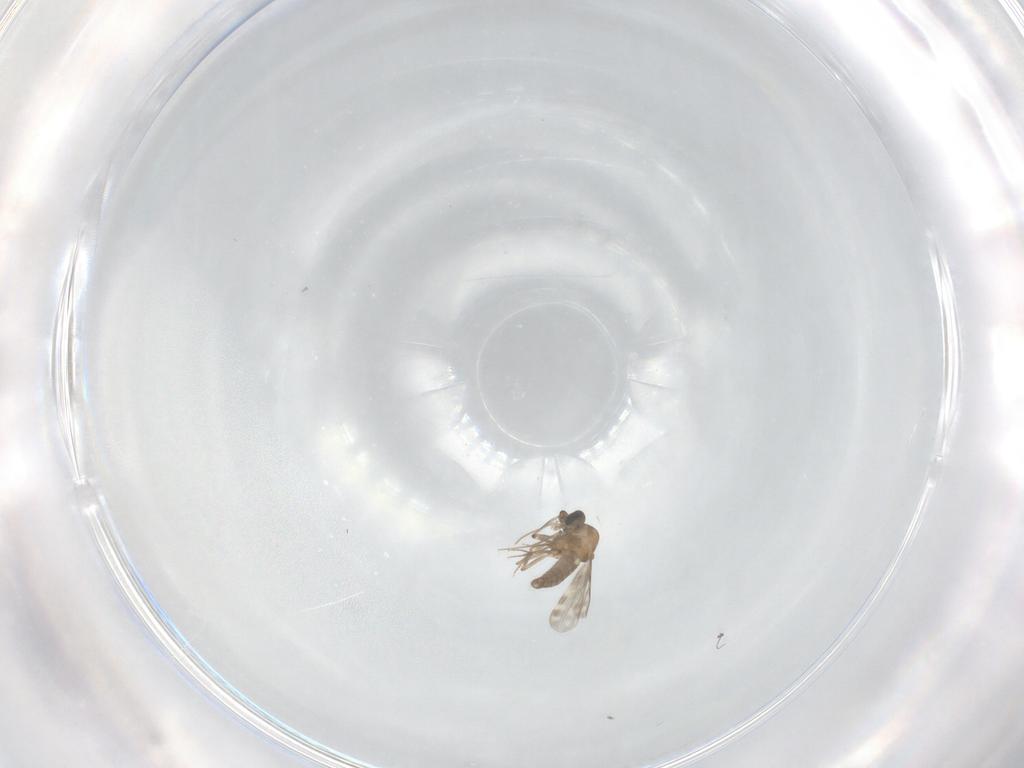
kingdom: Animalia
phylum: Arthropoda
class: Insecta
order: Diptera
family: Ceratopogonidae
